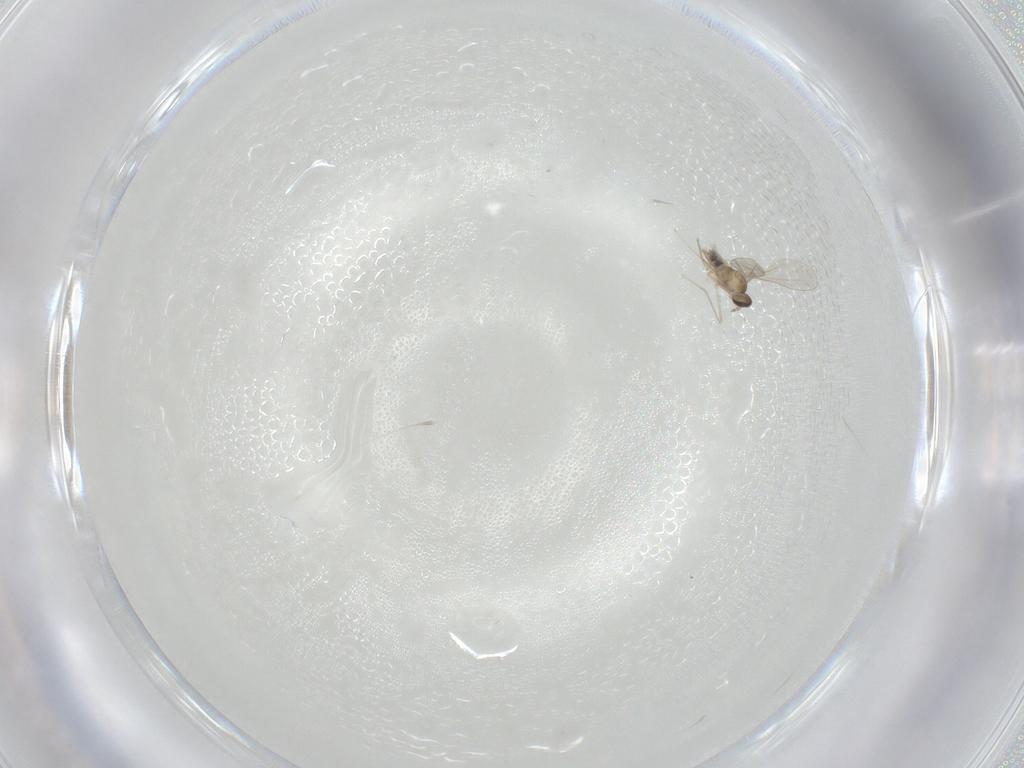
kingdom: Animalia
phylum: Arthropoda
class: Insecta
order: Diptera
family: Cecidomyiidae
